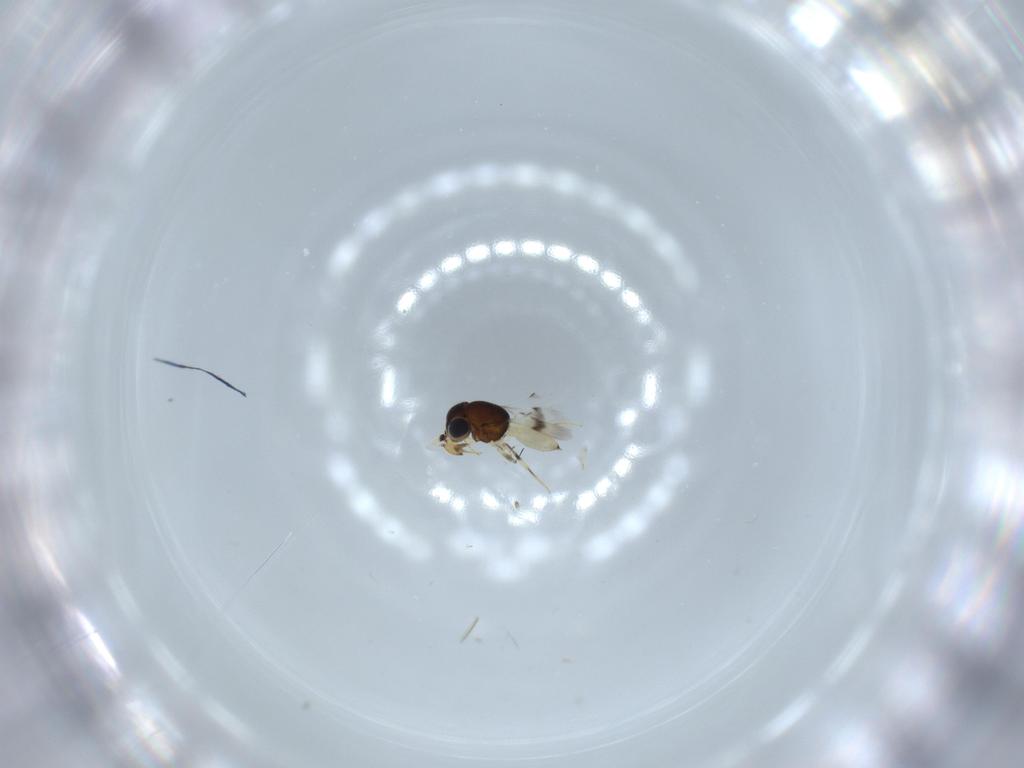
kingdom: Animalia
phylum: Arthropoda
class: Insecta
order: Hymenoptera
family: Scelionidae
